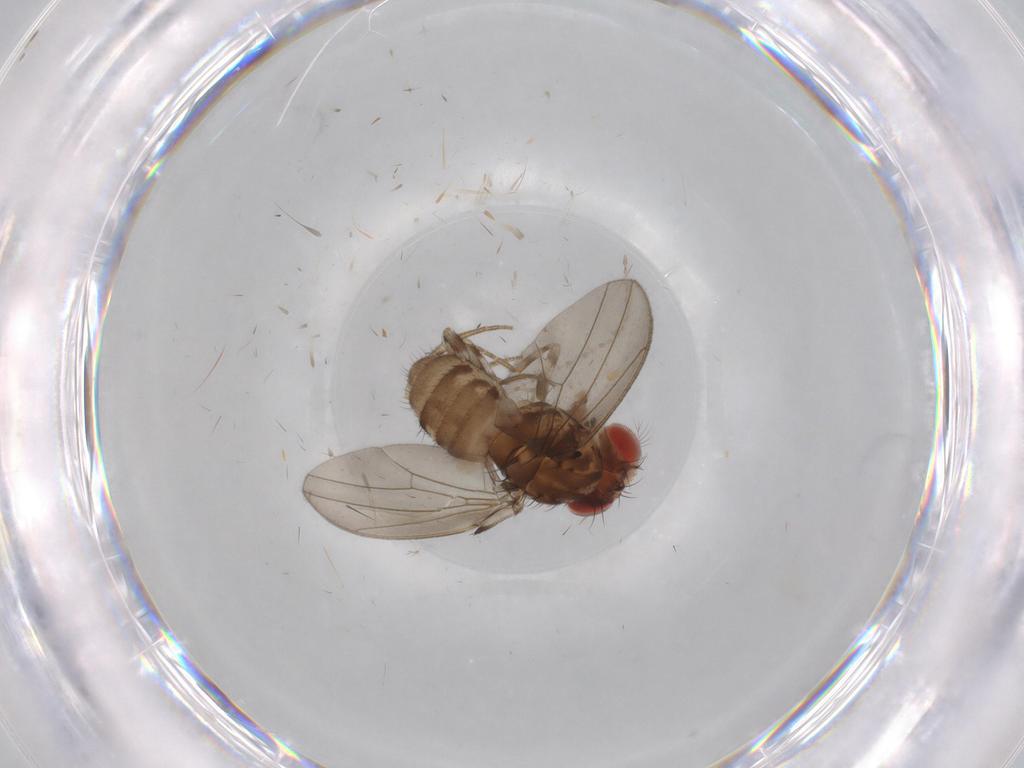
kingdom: Animalia
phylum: Arthropoda
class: Insecta
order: Diptera
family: Drosophilidae
